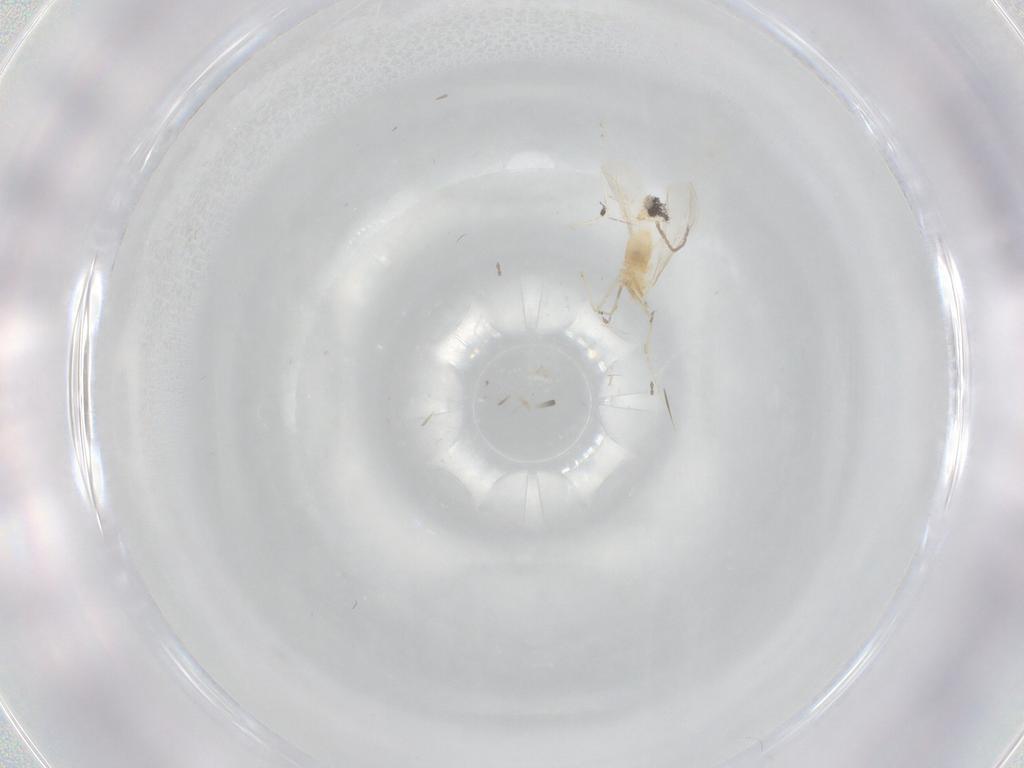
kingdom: Animalia
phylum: Arthropoda
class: Insecta
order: Diptera
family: Cecidomyiidae
